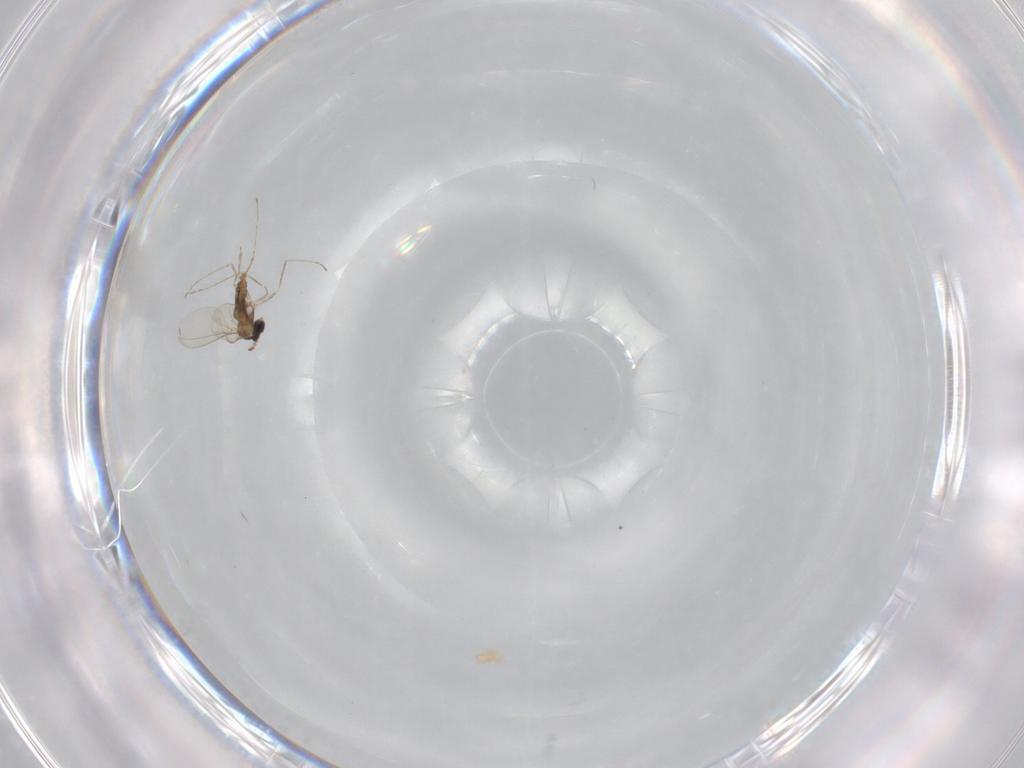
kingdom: Animalia
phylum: Arthropoda
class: Insecta
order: Diptera
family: Cecidomyiidae
